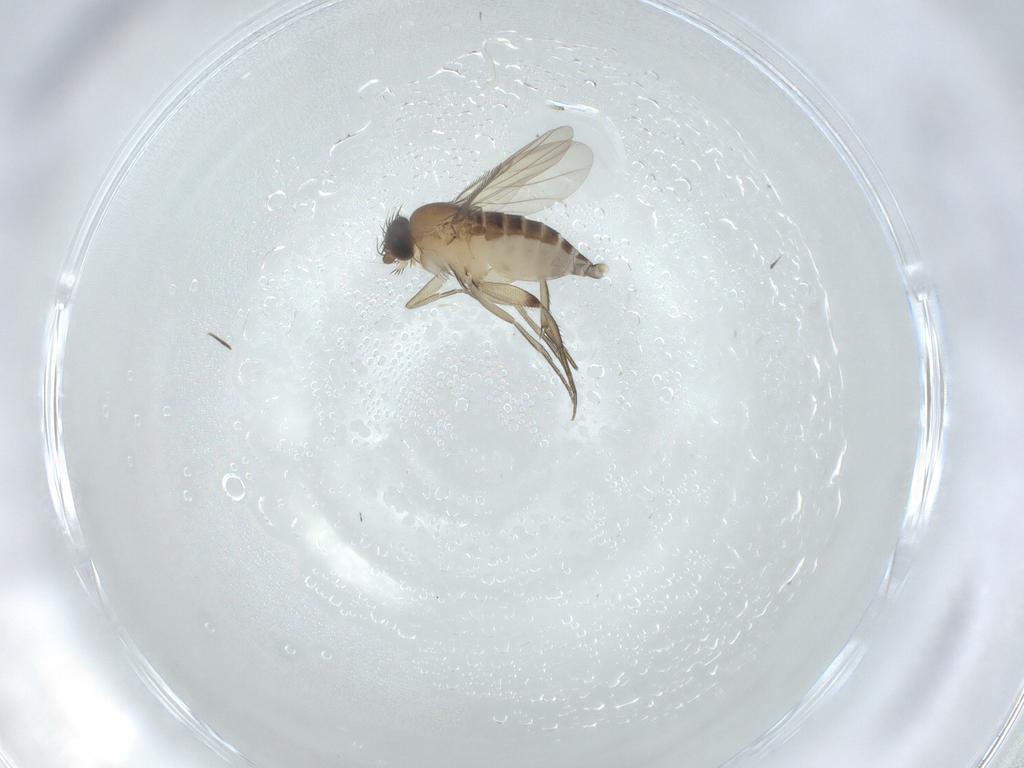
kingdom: Animalia
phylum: Arthropoda
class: Insecta
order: Diptera
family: Phoridae
